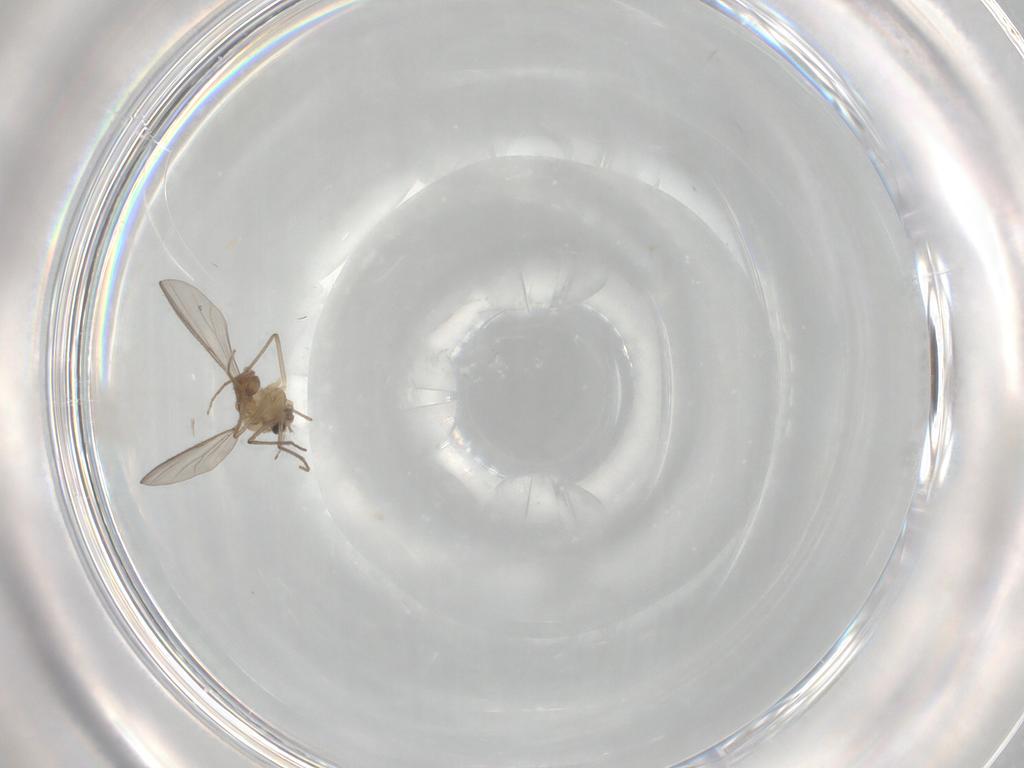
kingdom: Animalia
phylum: Arthropoda
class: Insecta
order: Diptera
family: Chironomidae
